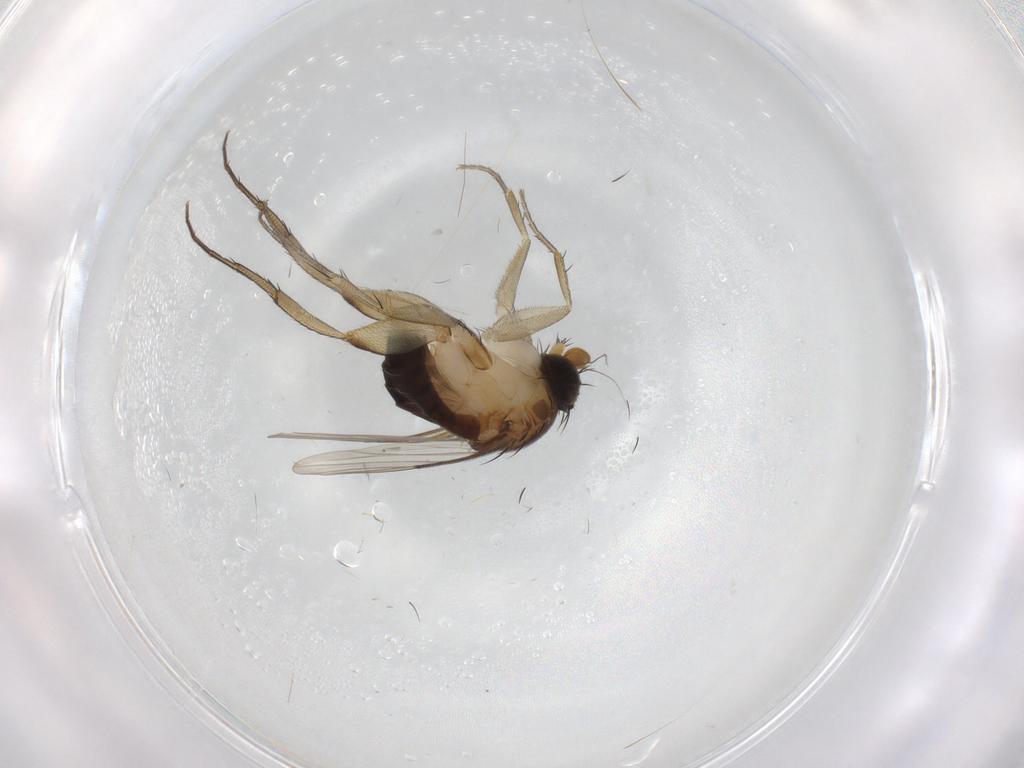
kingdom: Animalia
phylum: Arthropoda
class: Insecta
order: Diptera
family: Phoridae
